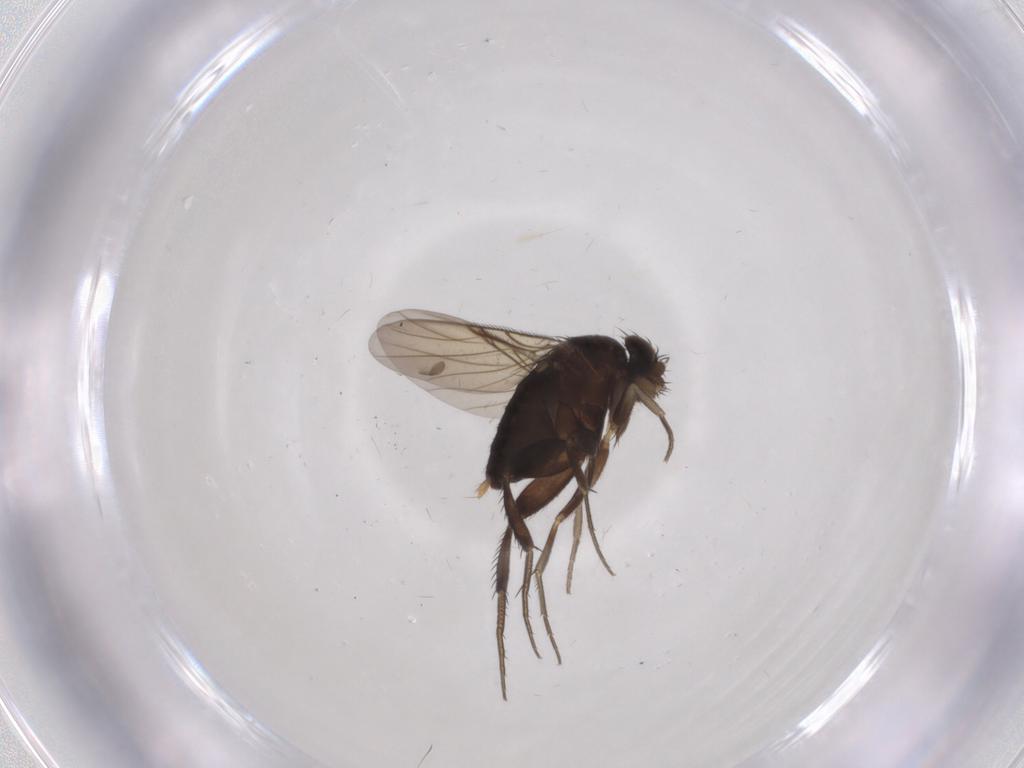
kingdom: Animalia
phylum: Arthropoda
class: Insecta
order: Diptera
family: Phoridae
